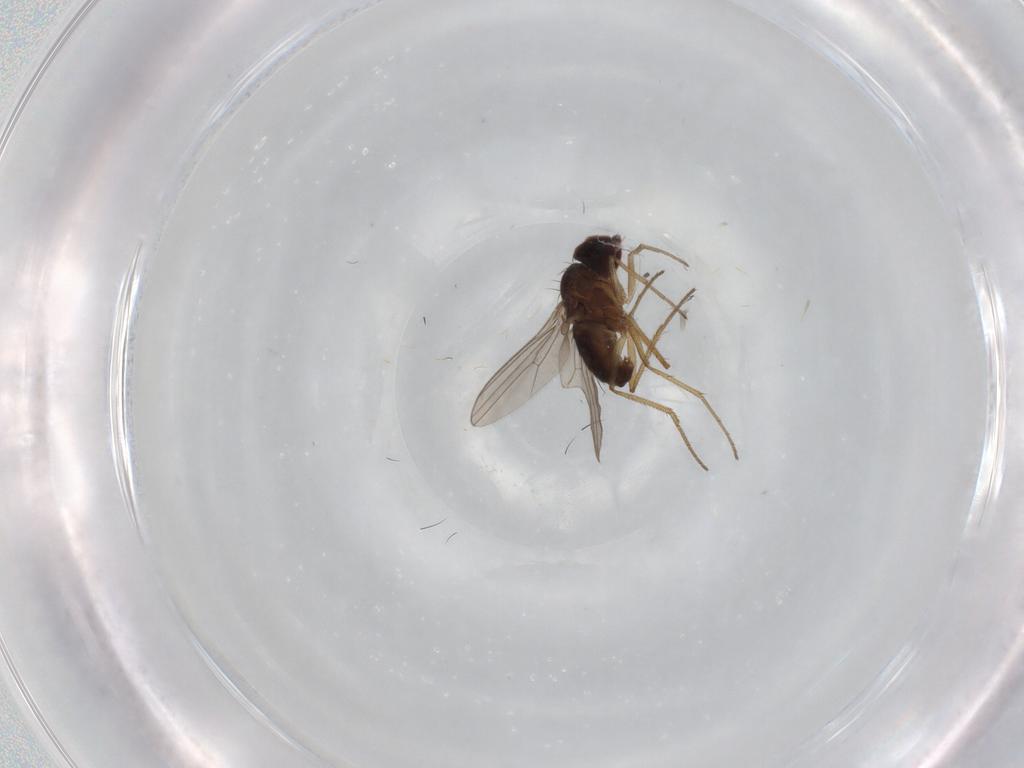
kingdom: Animalia
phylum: Arthropoda
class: Insecta
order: Diptera
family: Dolichopodidae
